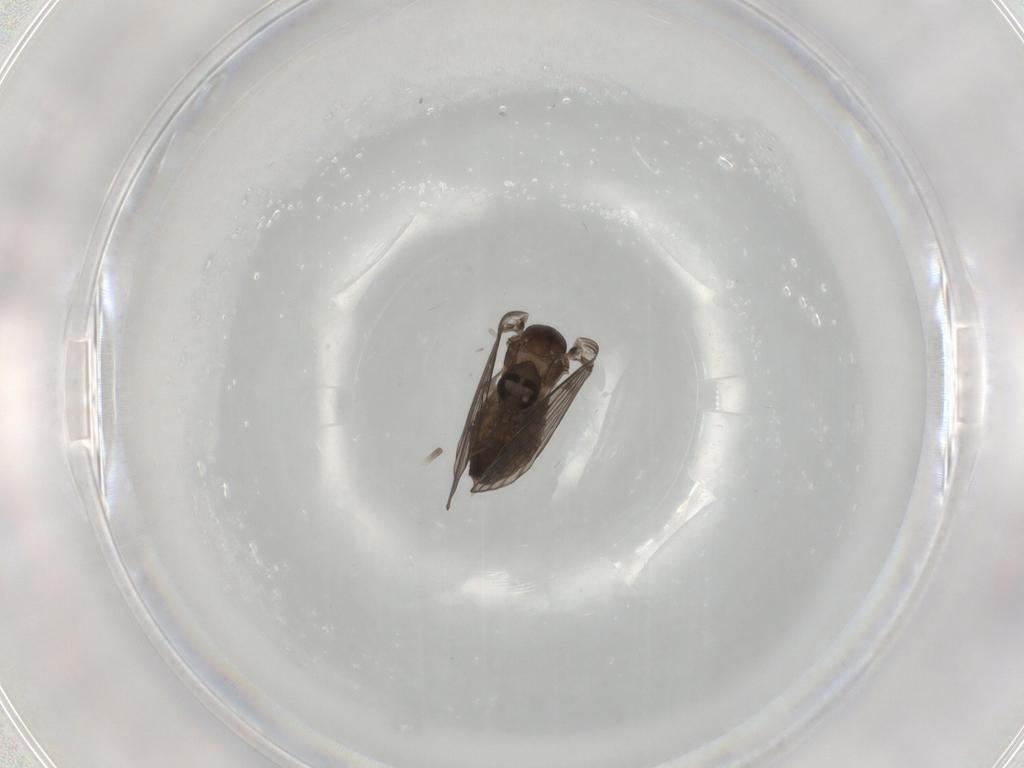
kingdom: Animalia
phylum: Arthropoda
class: Insecta
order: Diptera
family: Psychodidae
